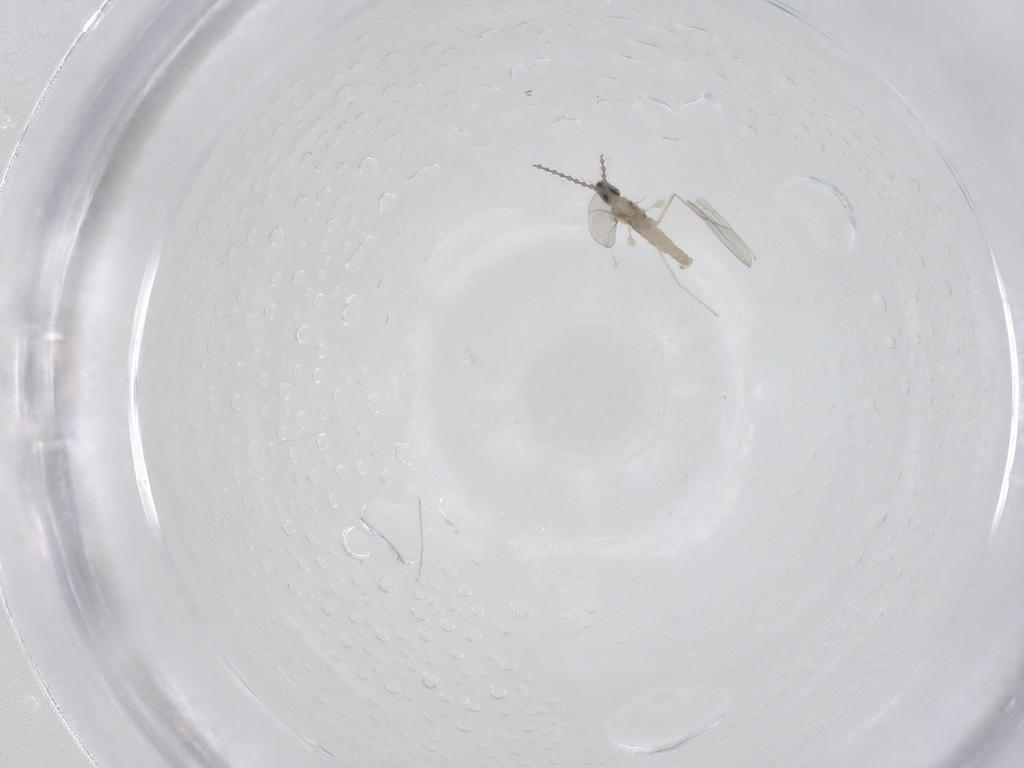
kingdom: Animalia
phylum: Arthropoda
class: Insecta
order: Diptera
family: Cecidomyiidae
